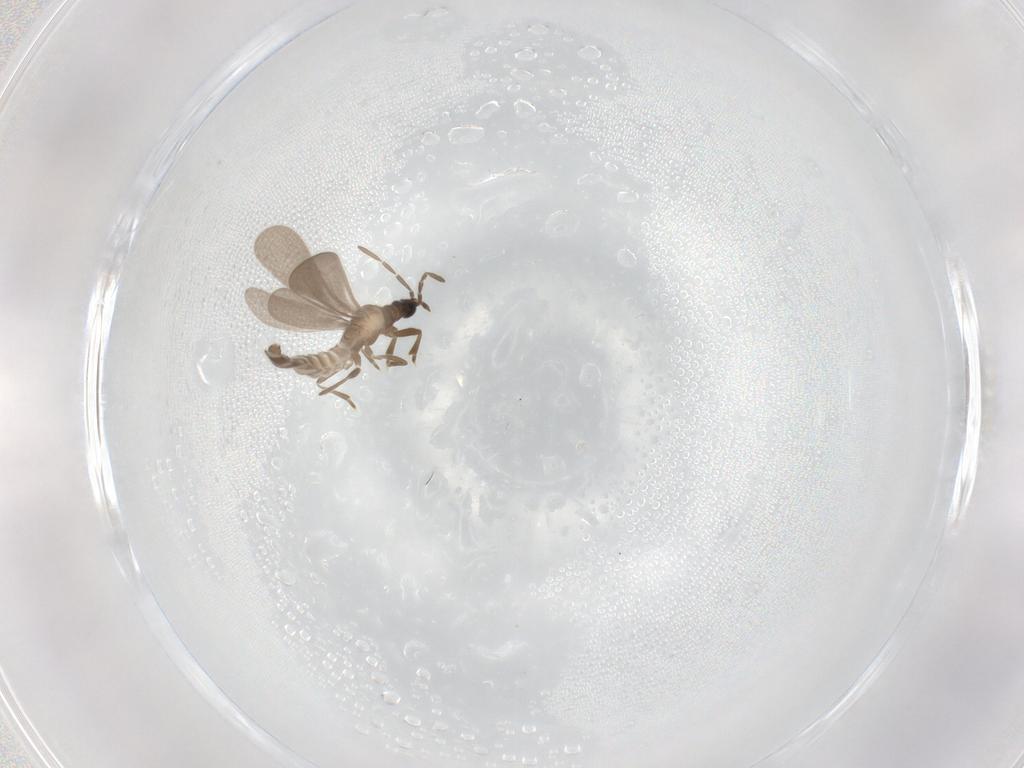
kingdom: Animalia
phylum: Arthropoda
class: Insecta
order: Hemiptera
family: Enicocephalidae
